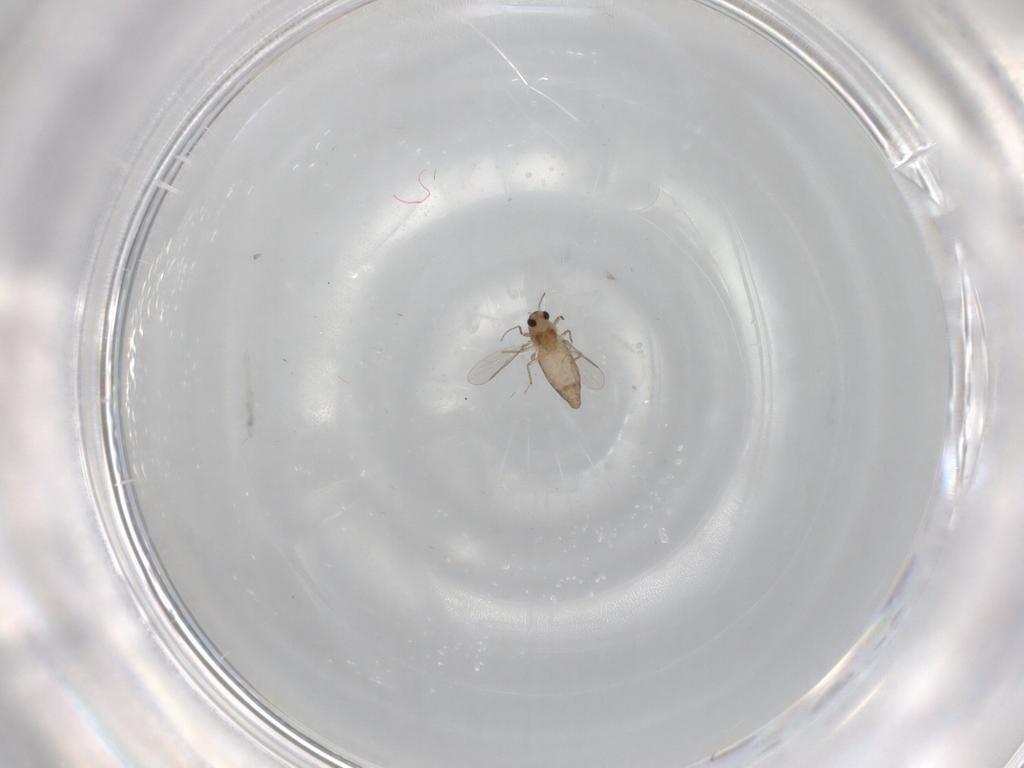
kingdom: Animalia
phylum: Arthropoda
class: Insecta
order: Diptera
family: Chironomidae
